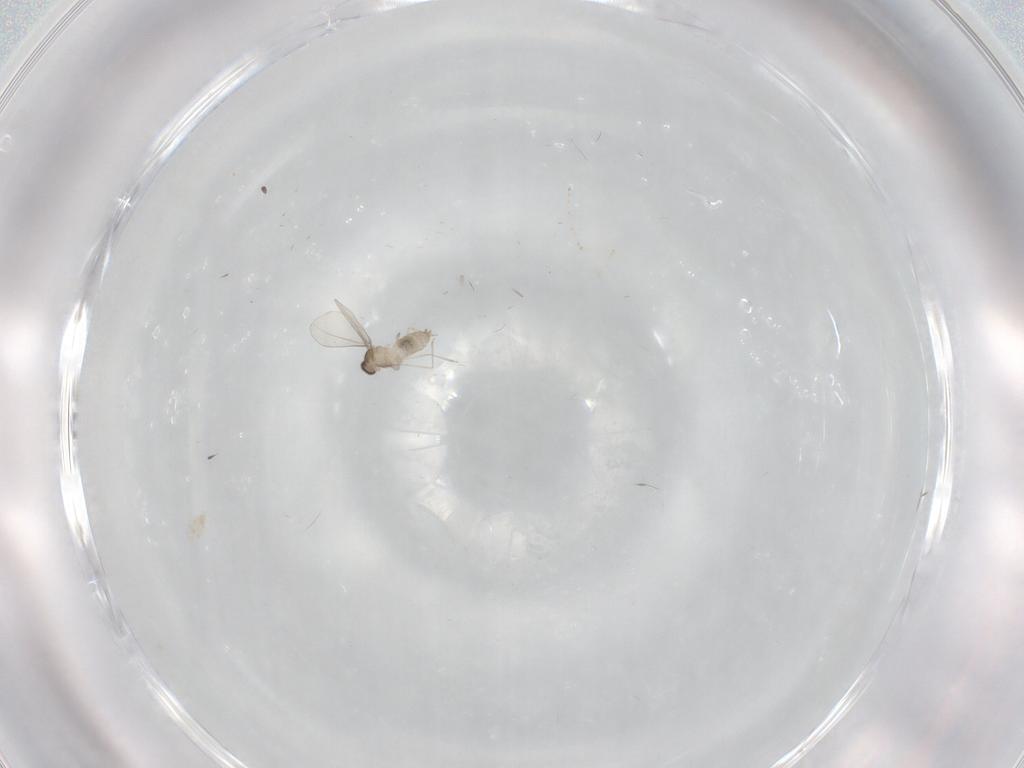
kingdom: Animalia
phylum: Arthropoda
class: Insecta
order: Diptera
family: Cecidomyiidae
